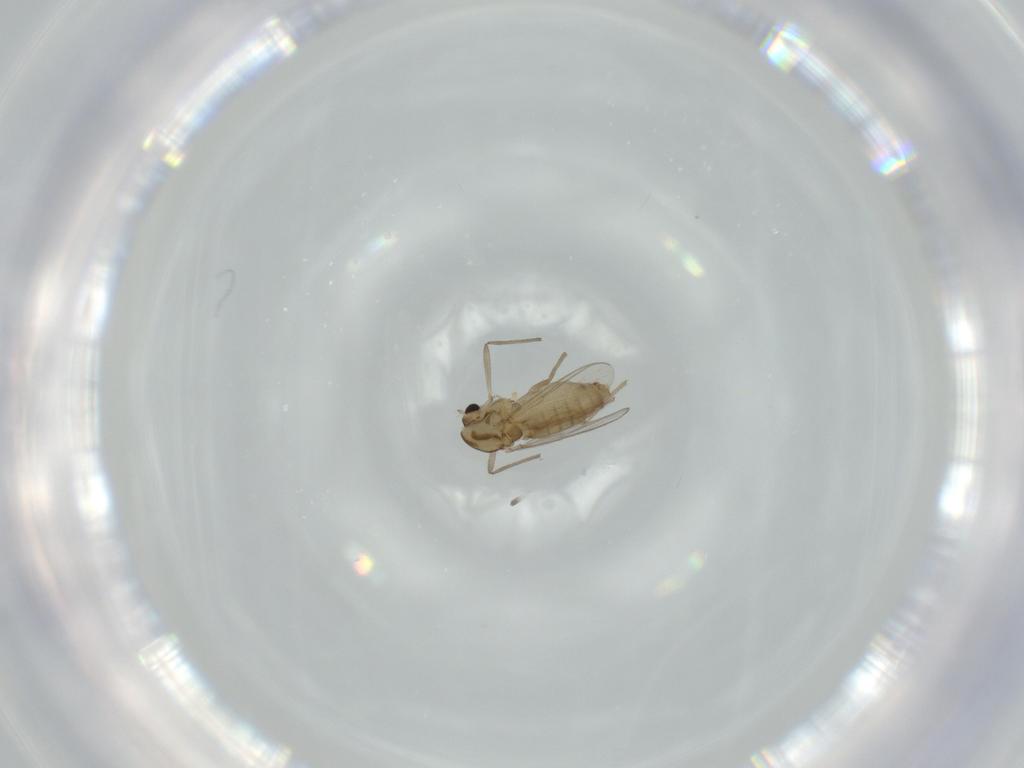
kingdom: Animalia
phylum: Arthropoda
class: Insecta
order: Diptera
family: Chironomidae
